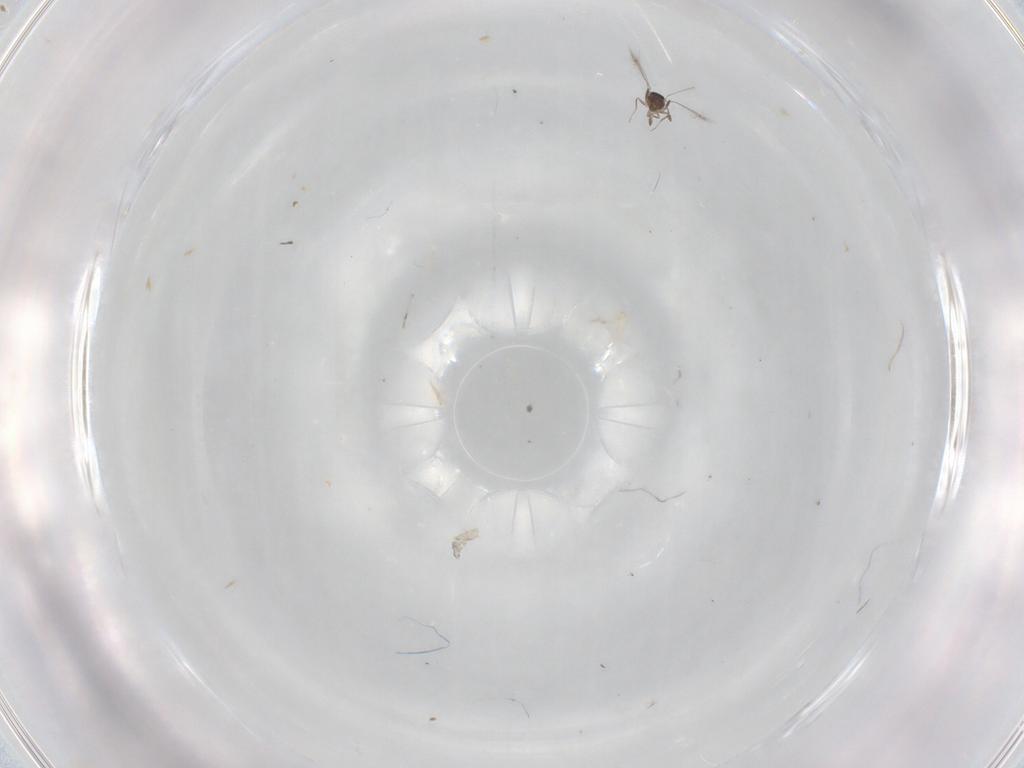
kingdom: Animalia
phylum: Arthropoda
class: Insecta
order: Hymenoptera
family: Mymaridae
